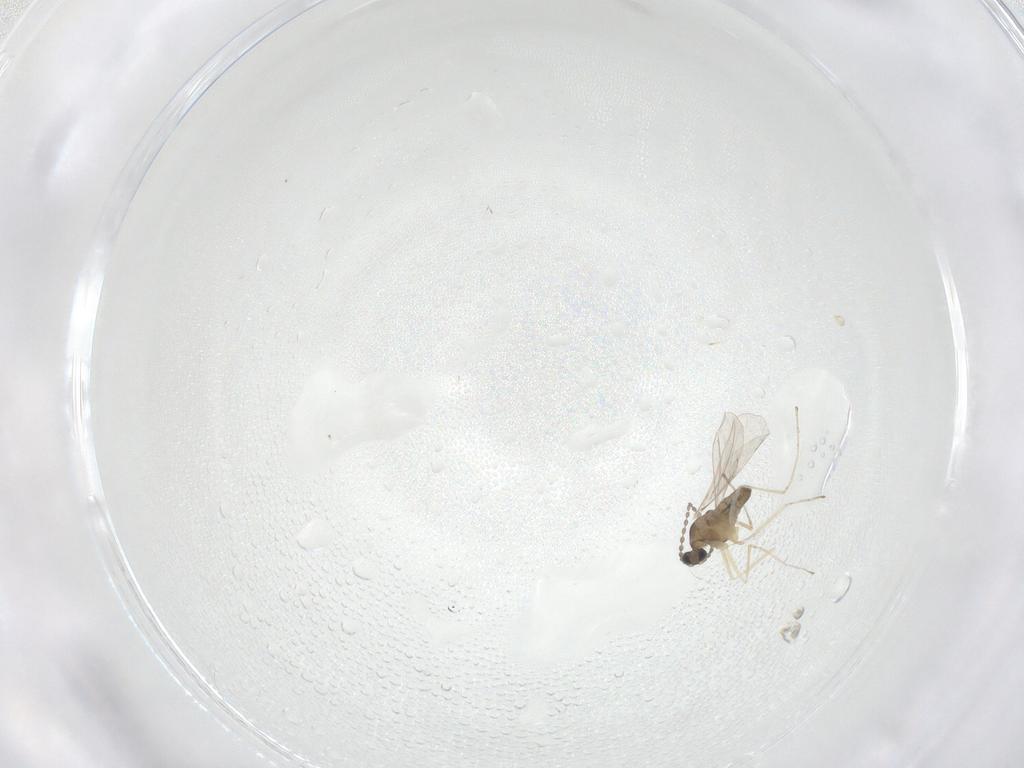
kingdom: Animalia
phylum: Arthropoda
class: Insecta
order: Diptera
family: Cecidomyiidae
